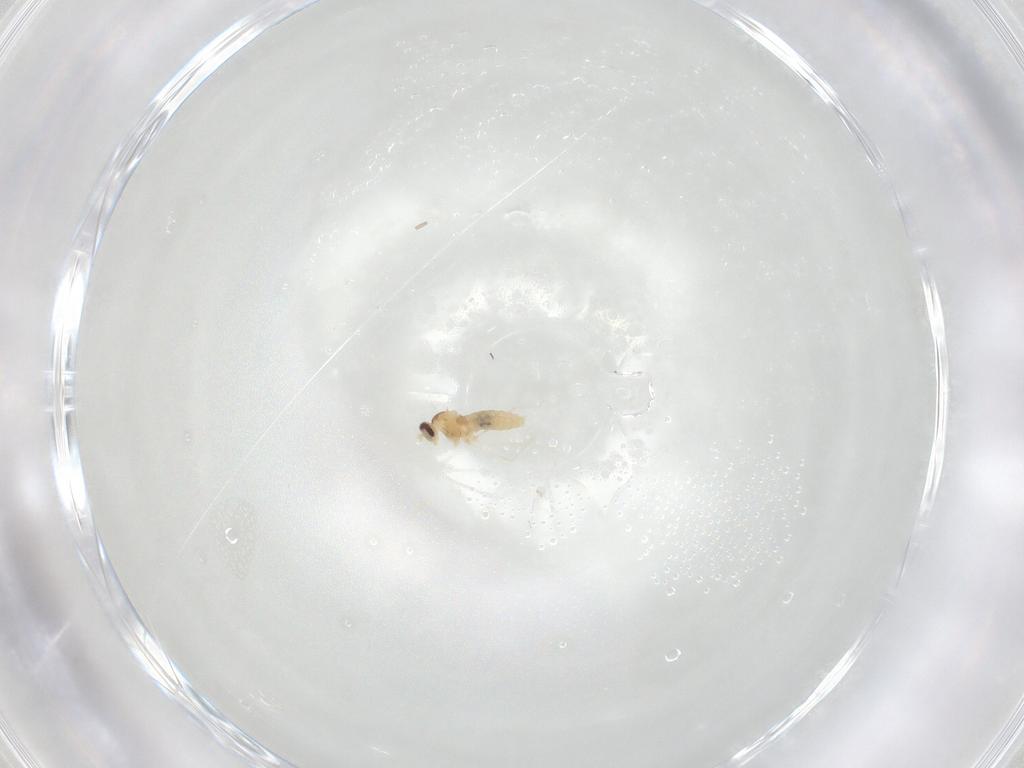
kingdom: Animalia
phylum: Arthropoda
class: Insecta
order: Diptera
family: Cecidomyiidae
